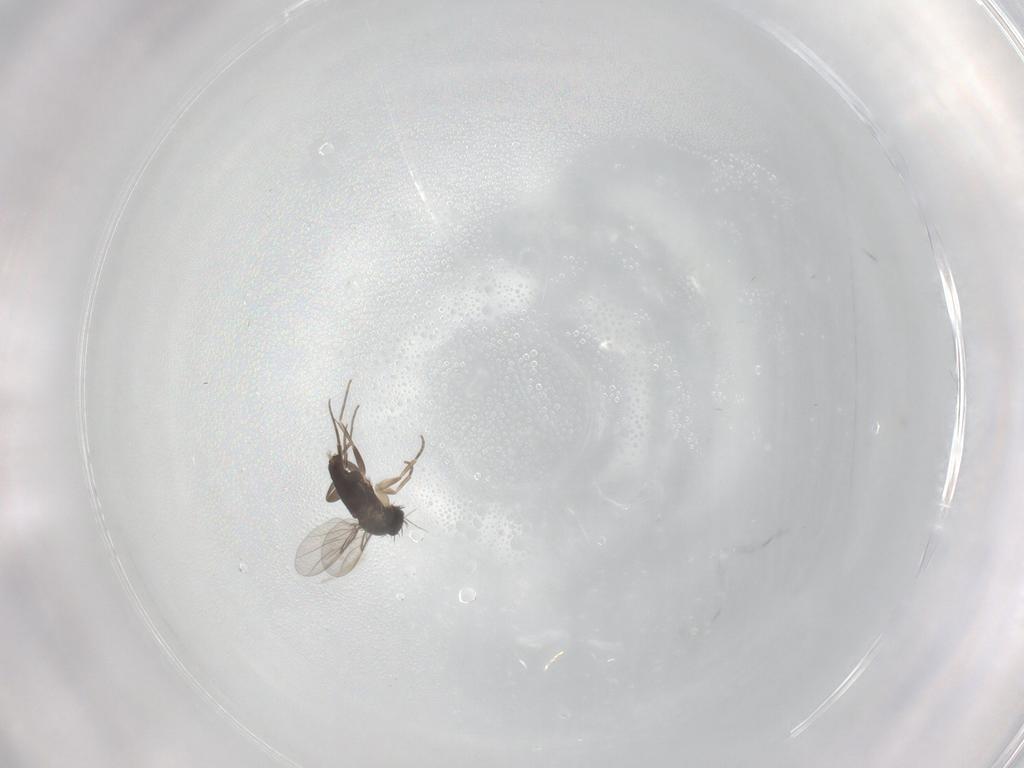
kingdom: Animalia
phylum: Arthropoda
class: Insecta
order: Diptera
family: Phoridae
